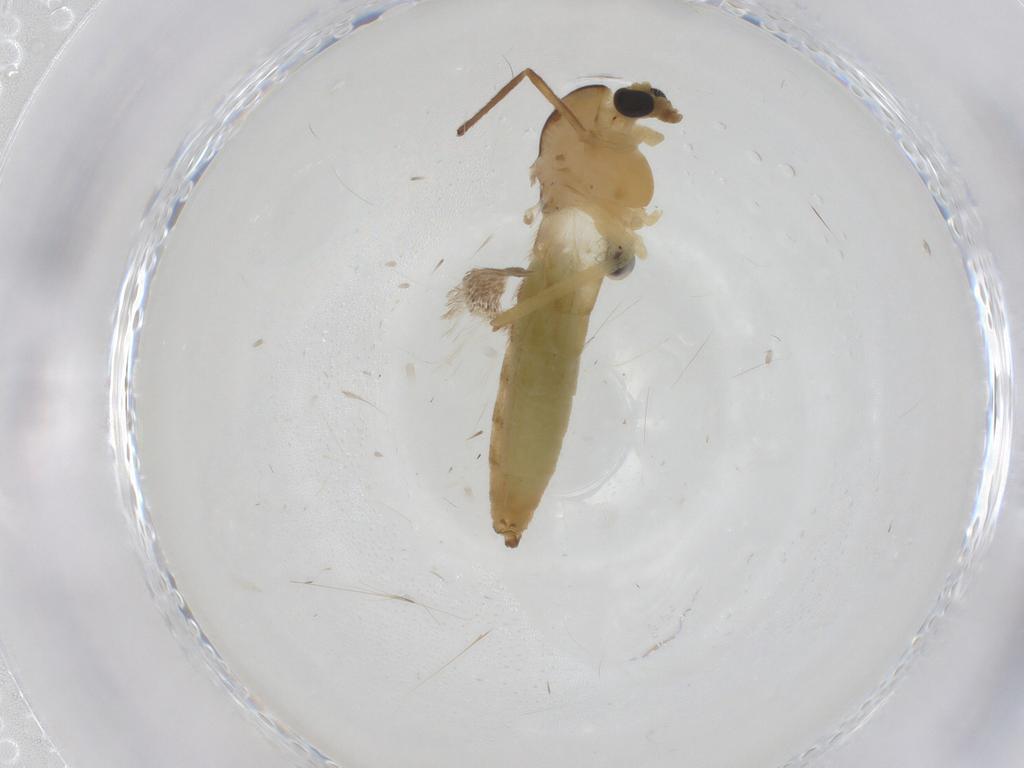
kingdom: Animalia
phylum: Arthropoda
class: Insecta
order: Diptera
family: Chironomidae
